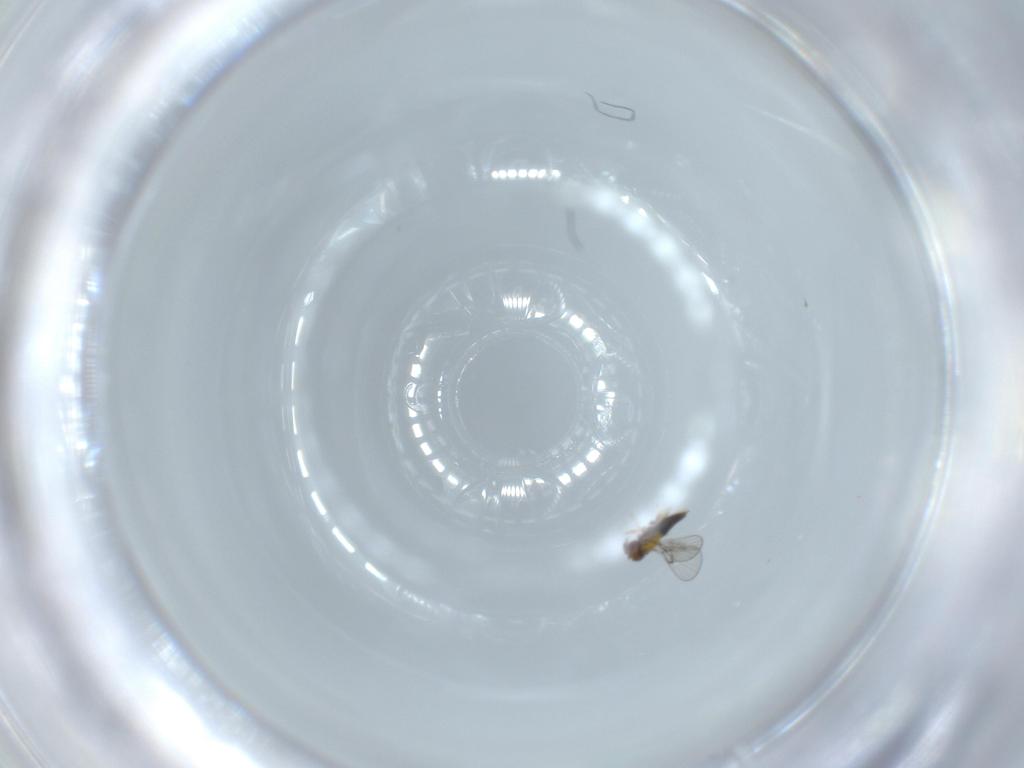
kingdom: Animalia
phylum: Arthropoda
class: Insecta
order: Hymenoptera
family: Trichogrammatidae
